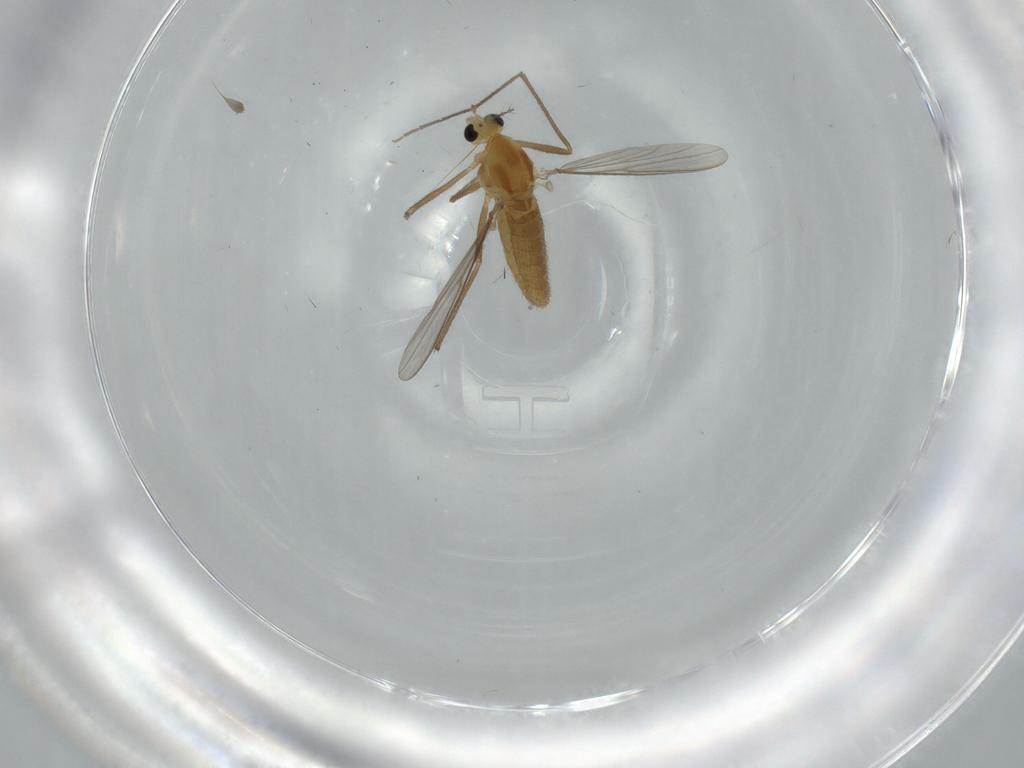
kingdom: Animalia
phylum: Arthropoda
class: Insecta
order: Diptera
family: Chironomidae
